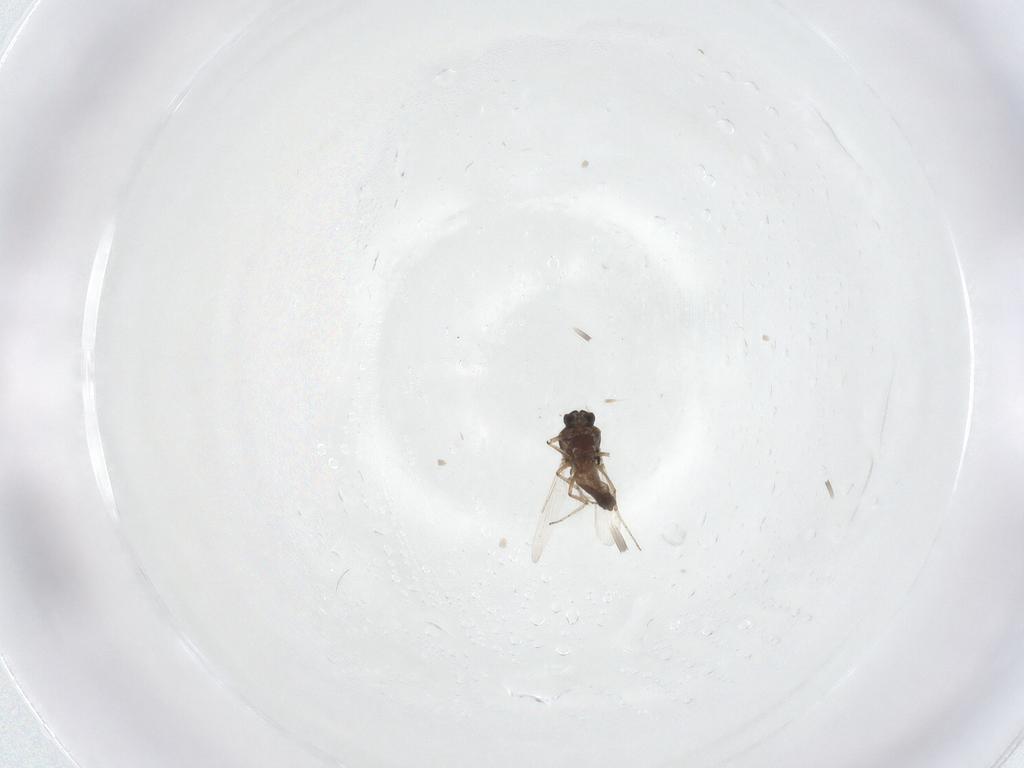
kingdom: Animalia
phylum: Arthropoda
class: Insecta
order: Diptera
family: Ceratopogonidae
